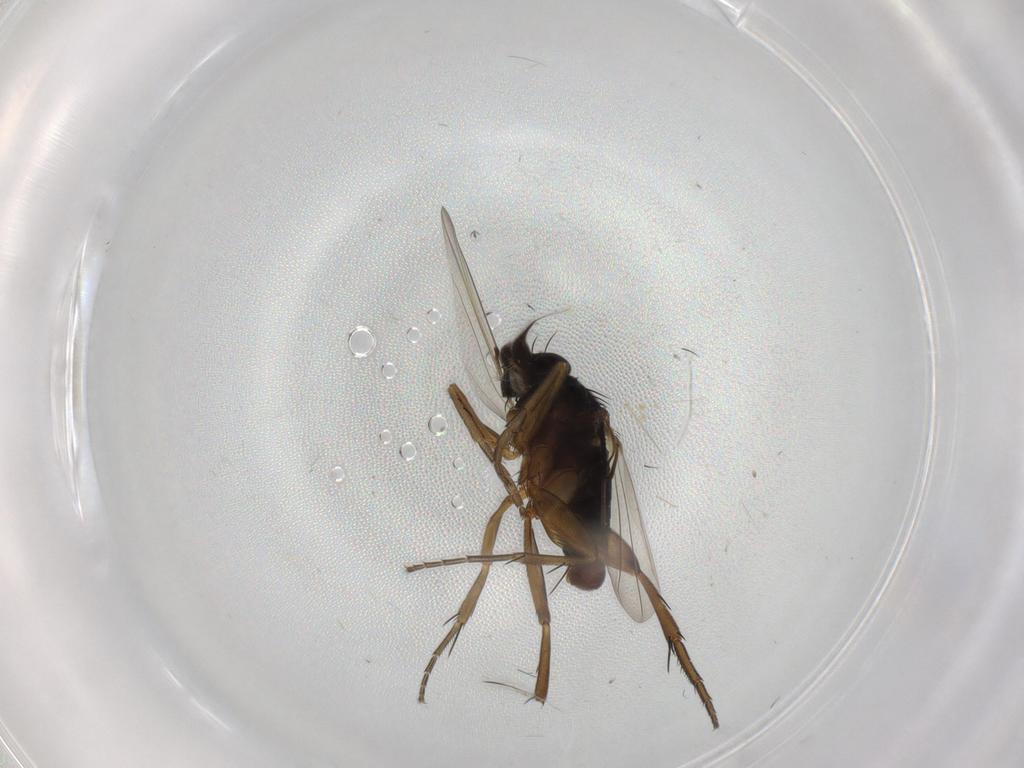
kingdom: Animalia
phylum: Arthropoda
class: Insecta
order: Diptera
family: Phoridae
